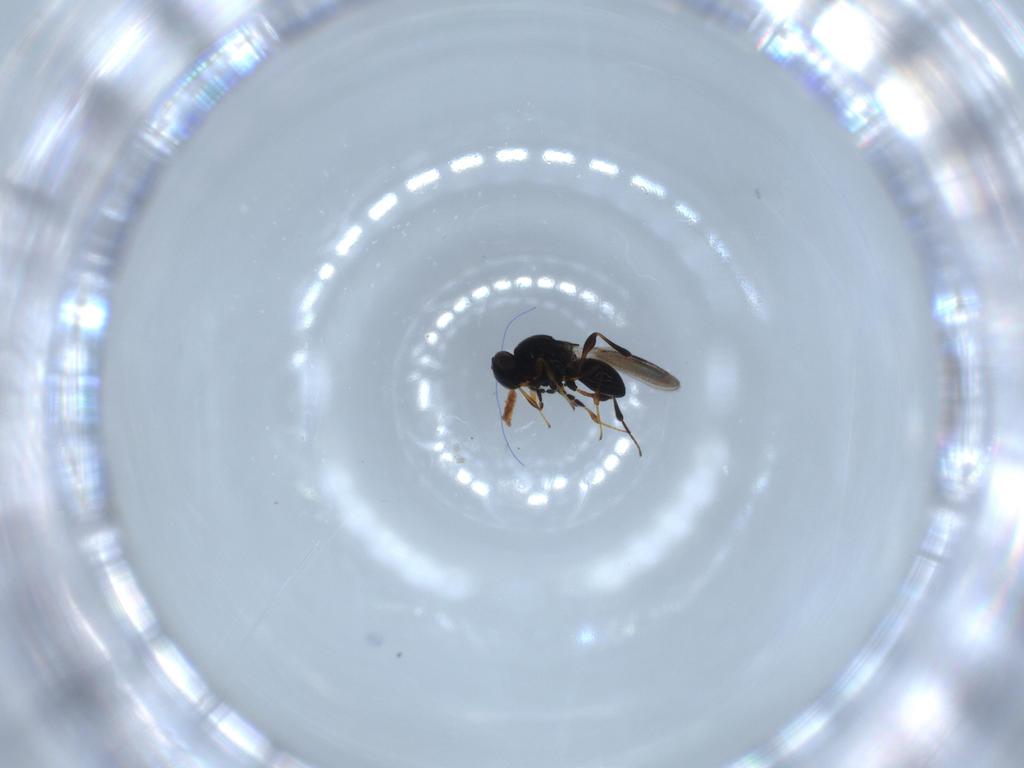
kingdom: Animalia
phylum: Arthropoda
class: Insecta
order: Hymenoptera
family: Platygastridae
